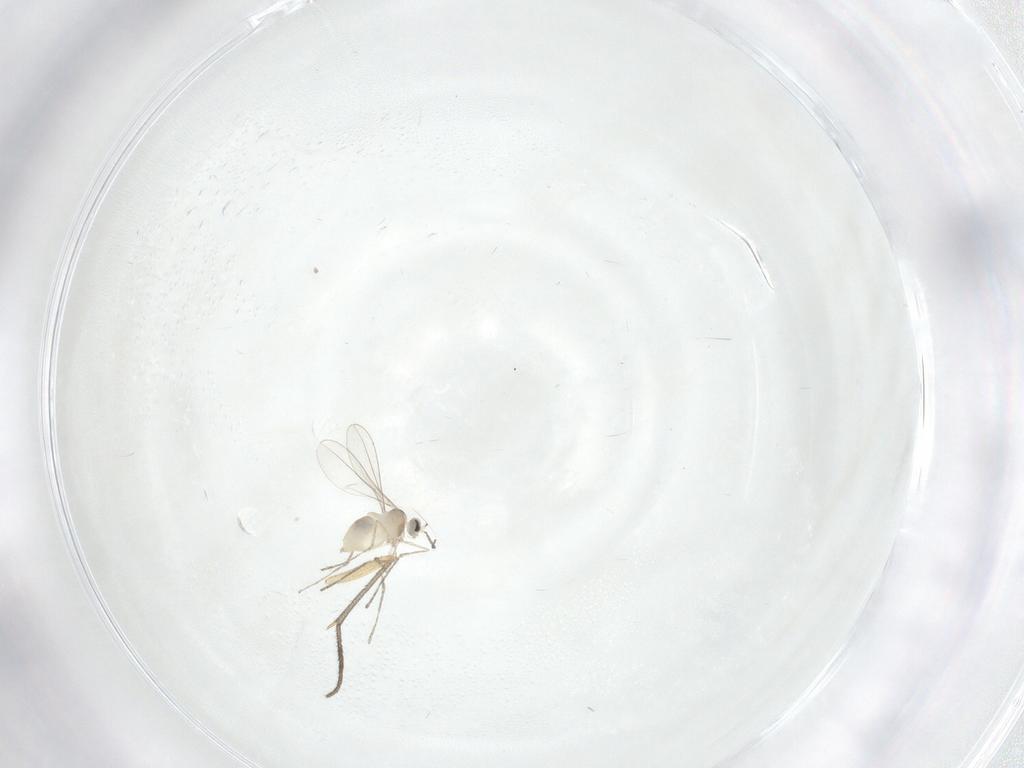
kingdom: Animalia
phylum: Arthropoda
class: Insecta
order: Diptera
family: Cecidomyiidae
